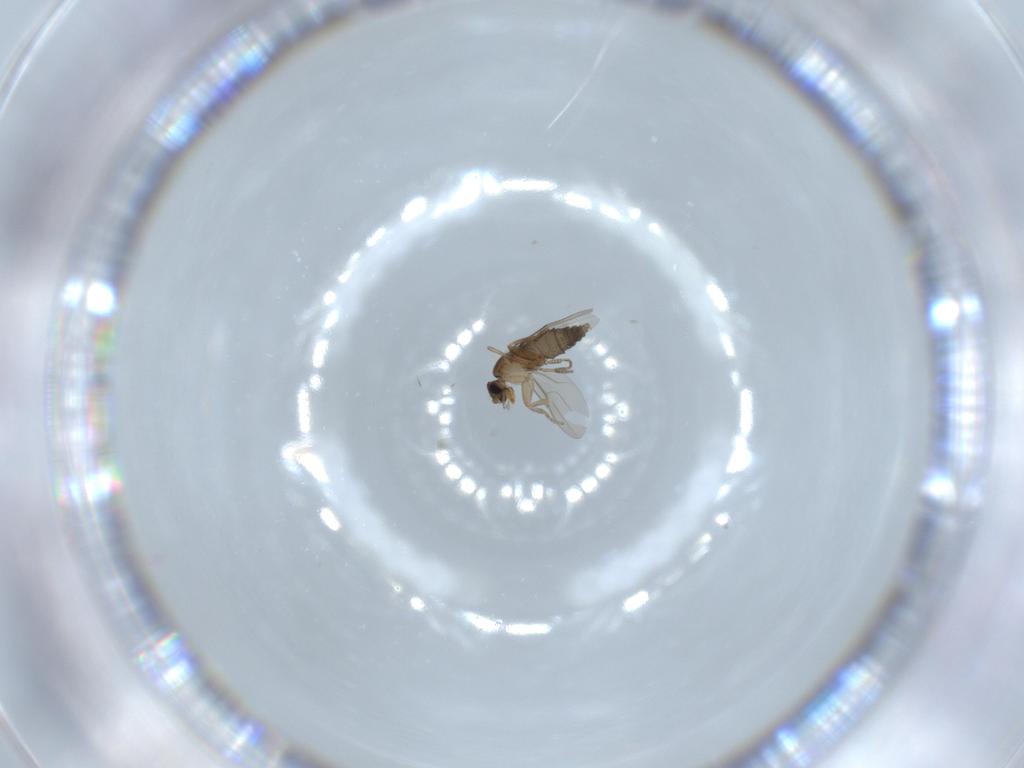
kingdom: Animalia
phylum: Arthropoda
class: Insecta
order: Diptera
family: Phoridae
